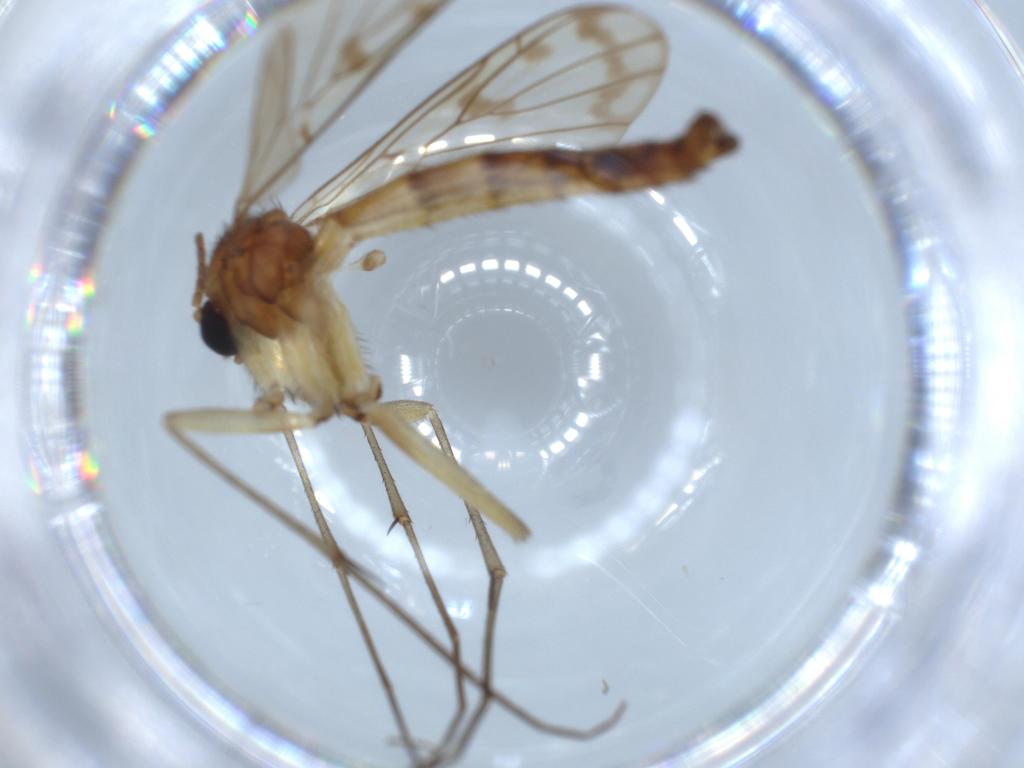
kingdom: Animalia
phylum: Arthropoda
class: Insecta
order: Diptera
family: Muscidae
